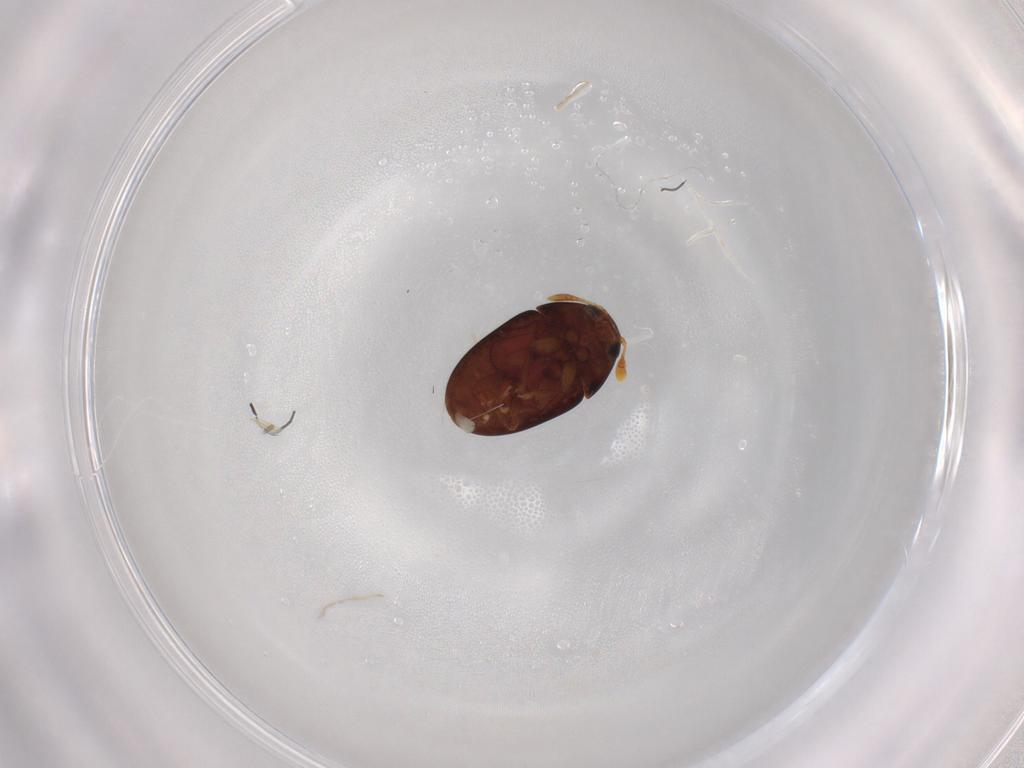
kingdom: Animalia
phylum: Arthropoda
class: Insecta
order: Coleoptera
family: Phalacridae
